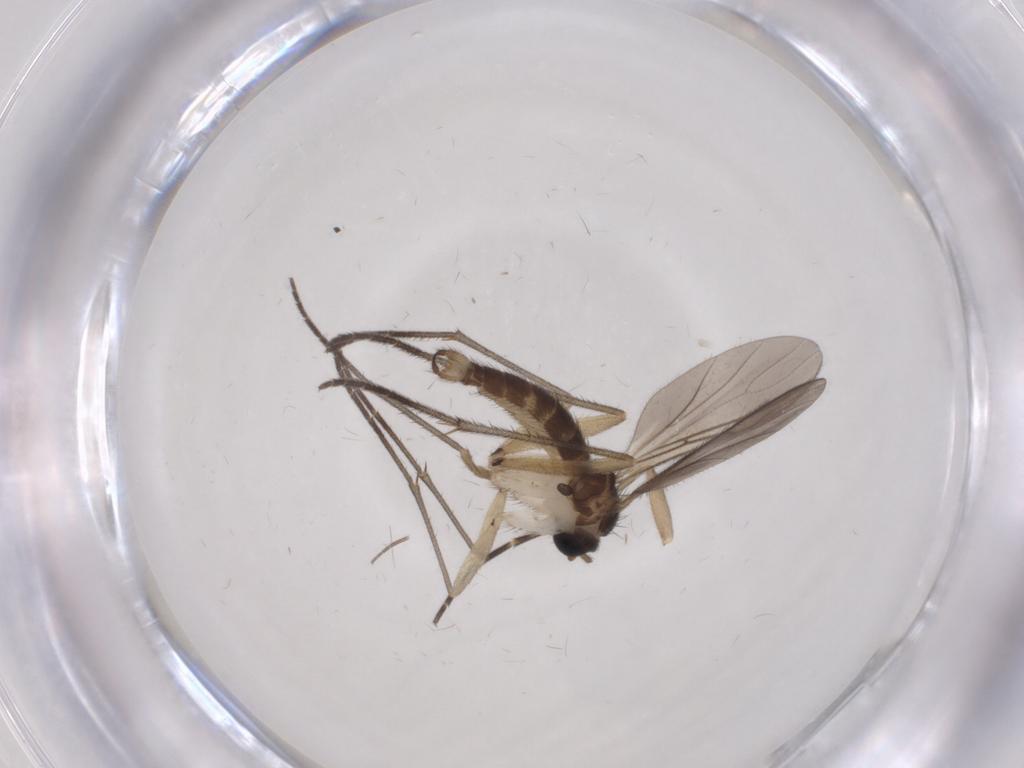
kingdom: Animalia
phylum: Arthropoda
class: Insecta
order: Diptera
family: Sciaridae
